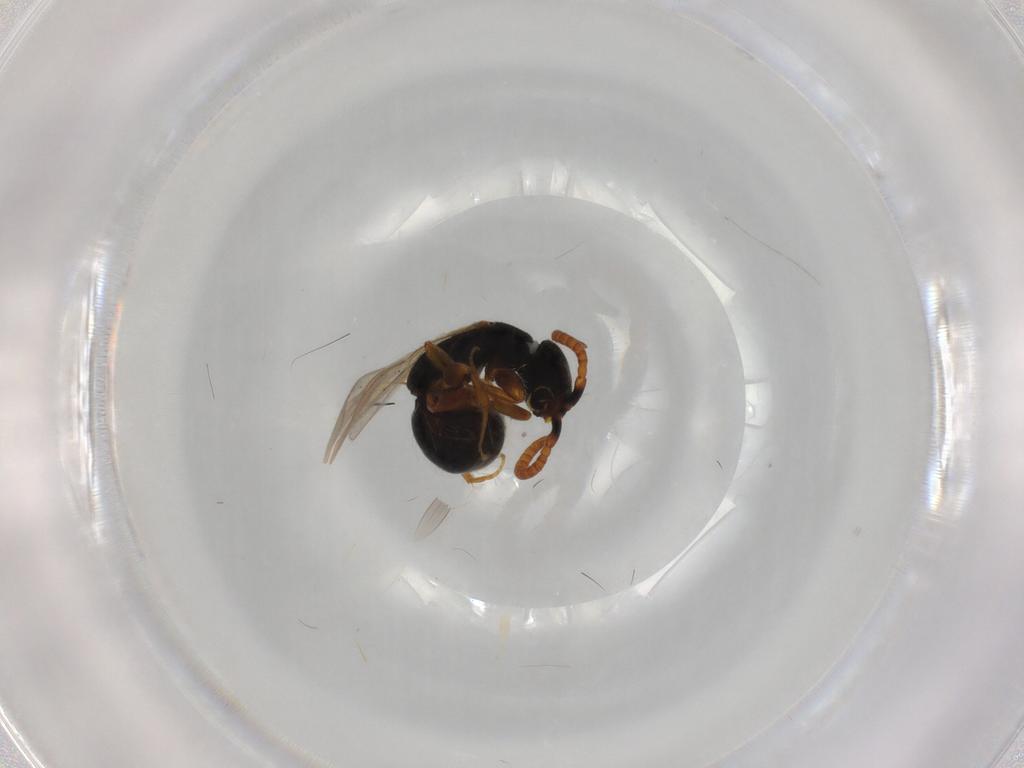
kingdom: Animalia
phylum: Arthropoda
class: Insecta
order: Hymenoptera
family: Bethylidae
